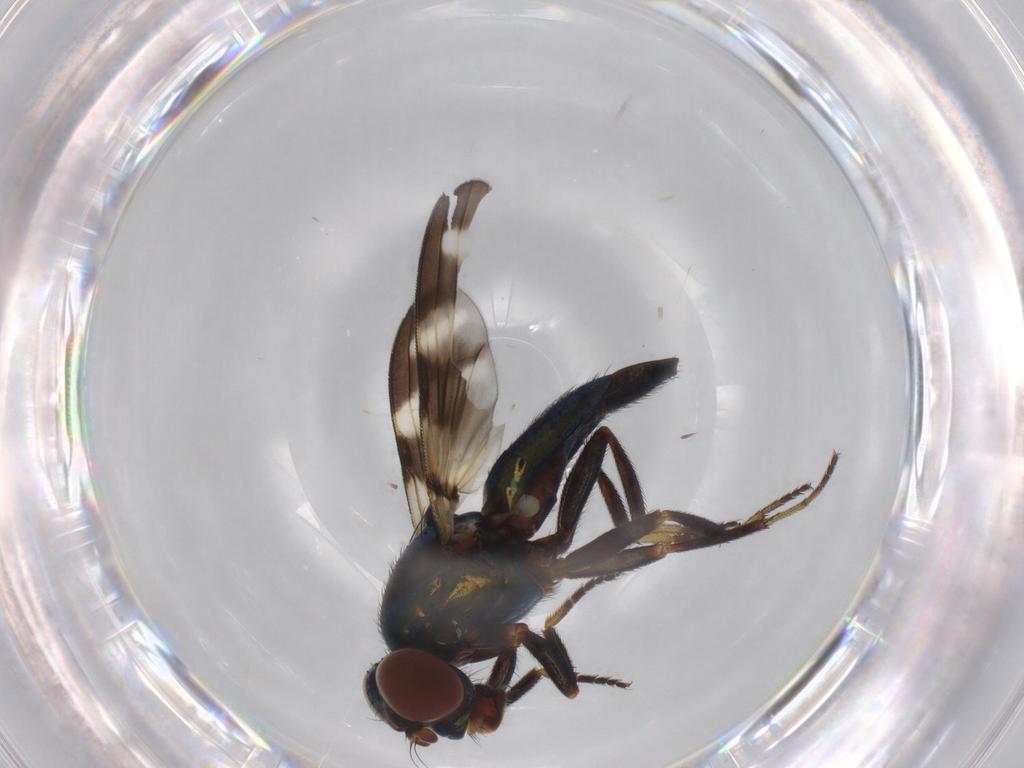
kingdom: Animalia
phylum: Arthropoda
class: Insecta
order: Diptera
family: Ulidiidae
